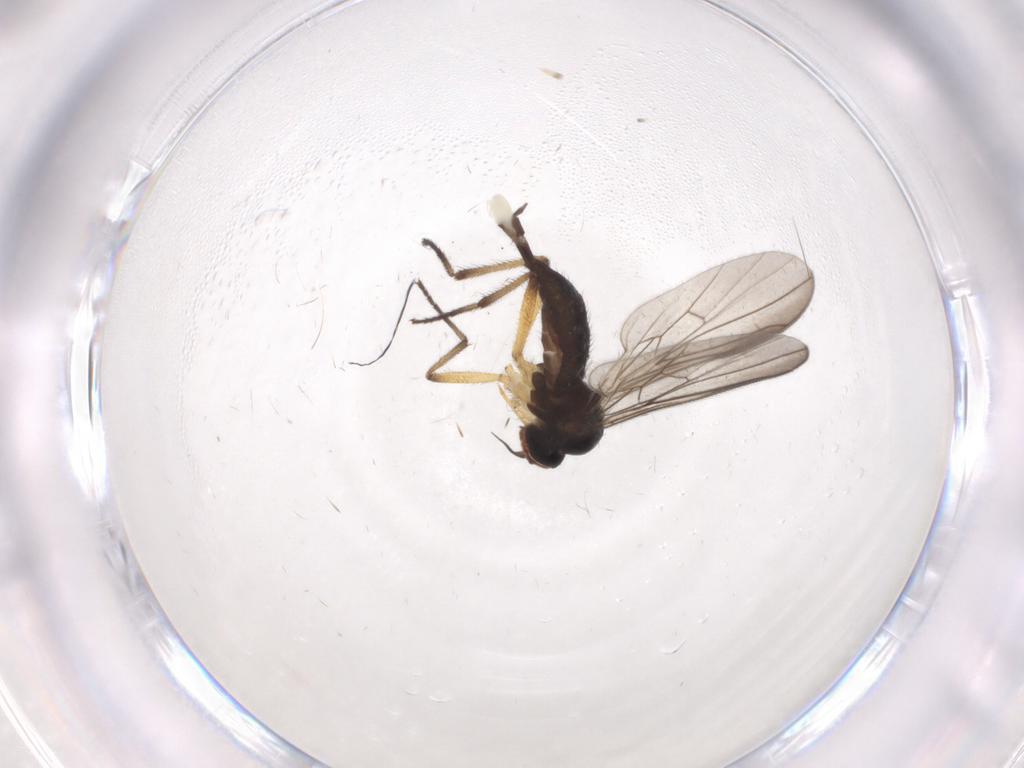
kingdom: Animalia
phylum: Arthropoda
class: Insecta
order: Diptera
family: Empididae
